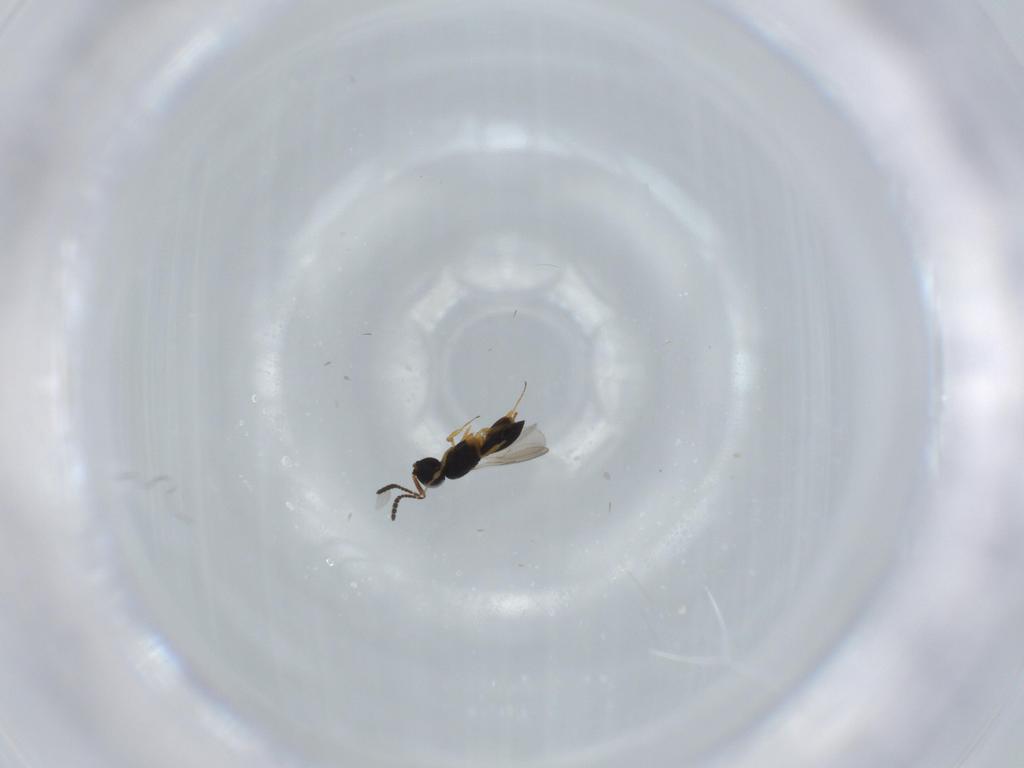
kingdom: Animalia
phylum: Arthropoda
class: Insecta
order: Hymenoptera
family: Scelionidae
